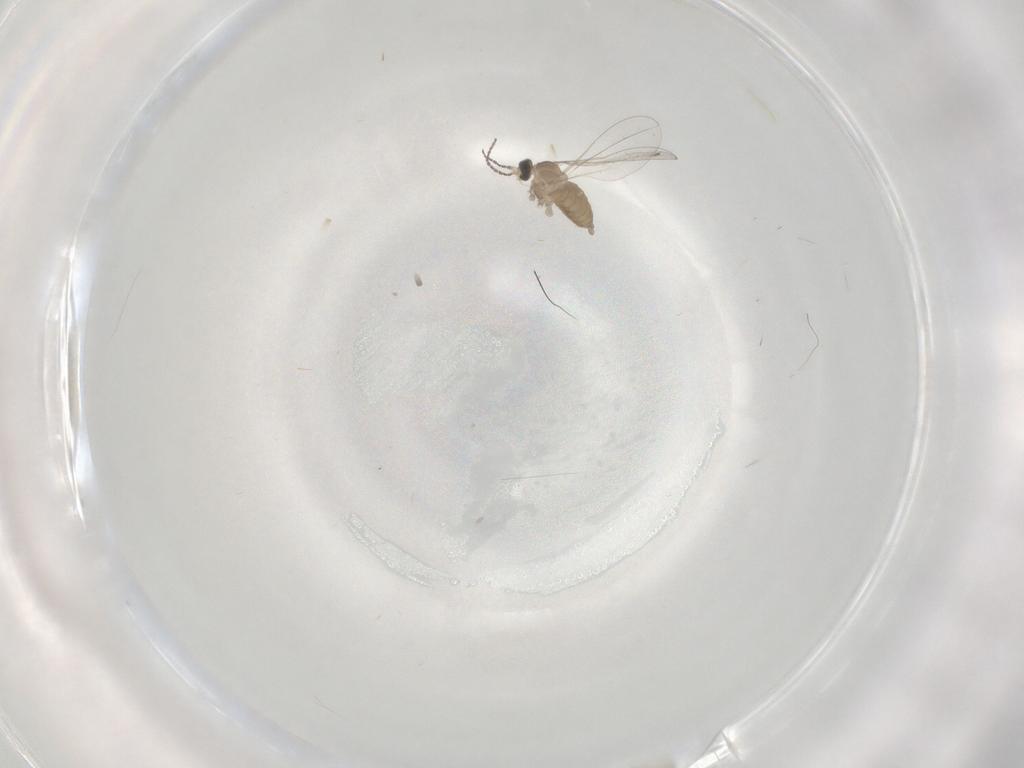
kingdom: Animalia
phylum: Arthropoda
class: Insecta
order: Diptera
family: Cecidomyiidae
